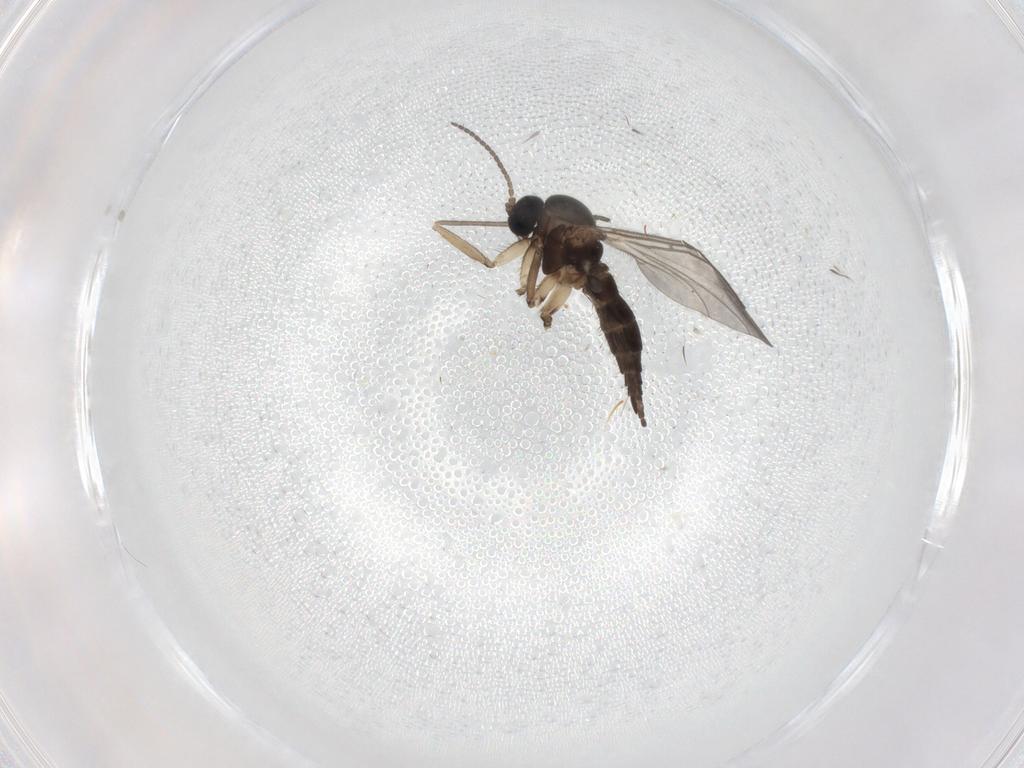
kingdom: Animalia
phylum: Arthropoda
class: Insecta
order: Diptera
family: Sciaridae
